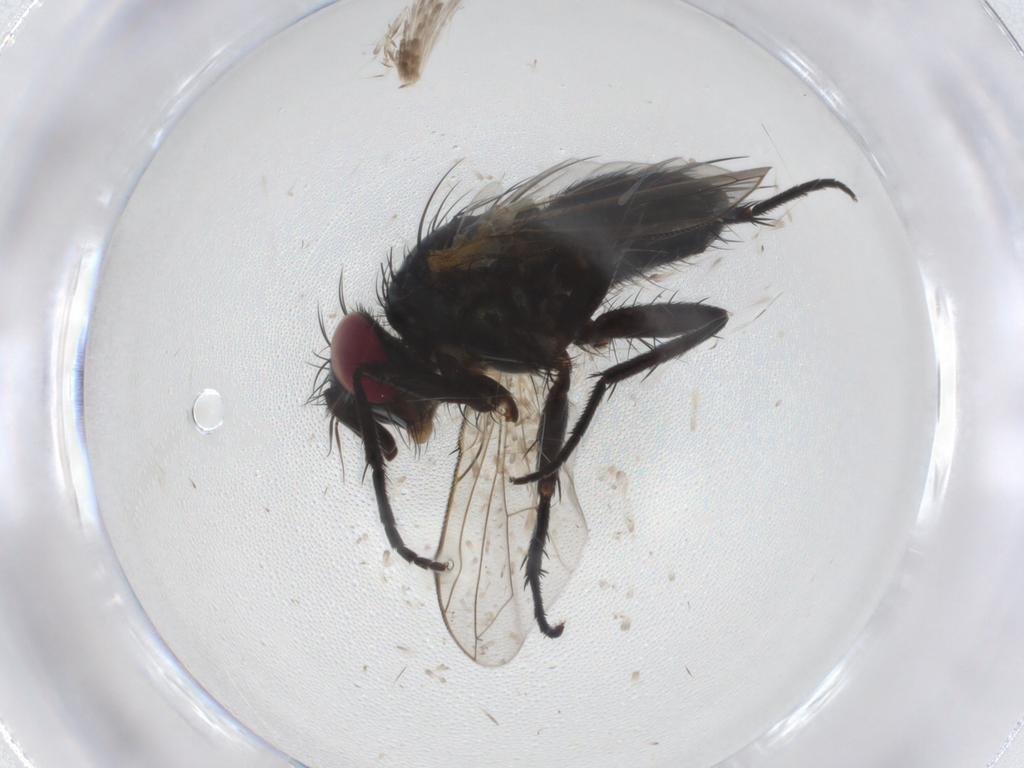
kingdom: Animalia
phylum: Arthropoda
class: Insecta
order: Diptera
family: Tachinidae
